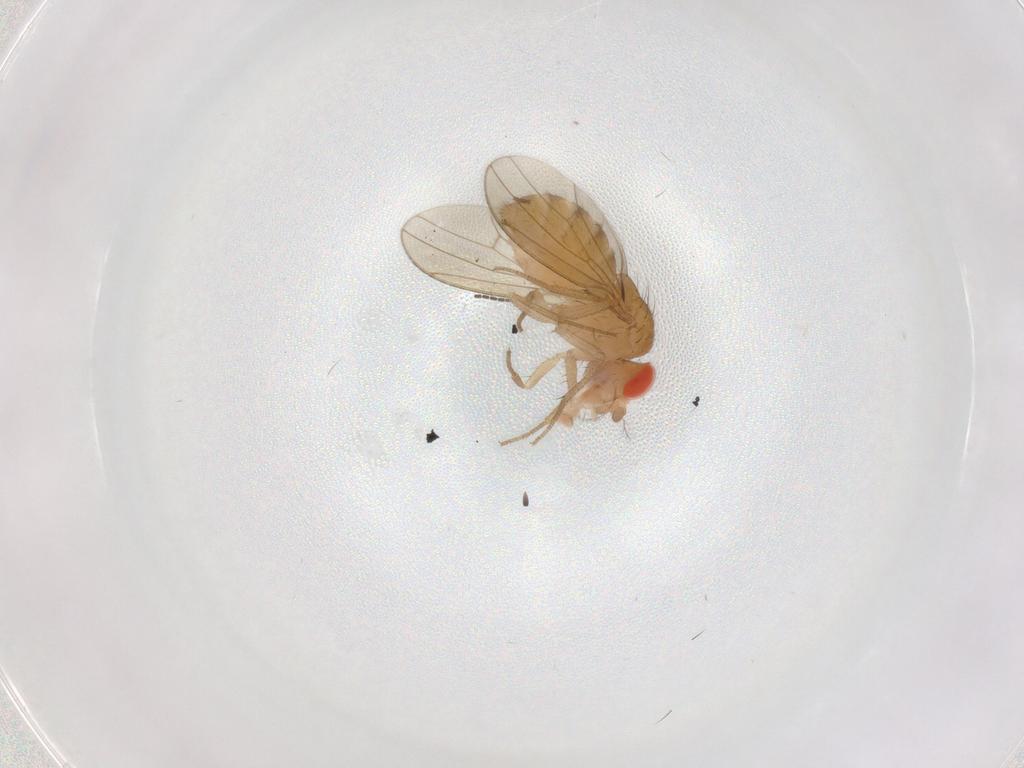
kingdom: Animalia
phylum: Arthropoda
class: Insecta
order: Diptera
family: Drosophilidae
